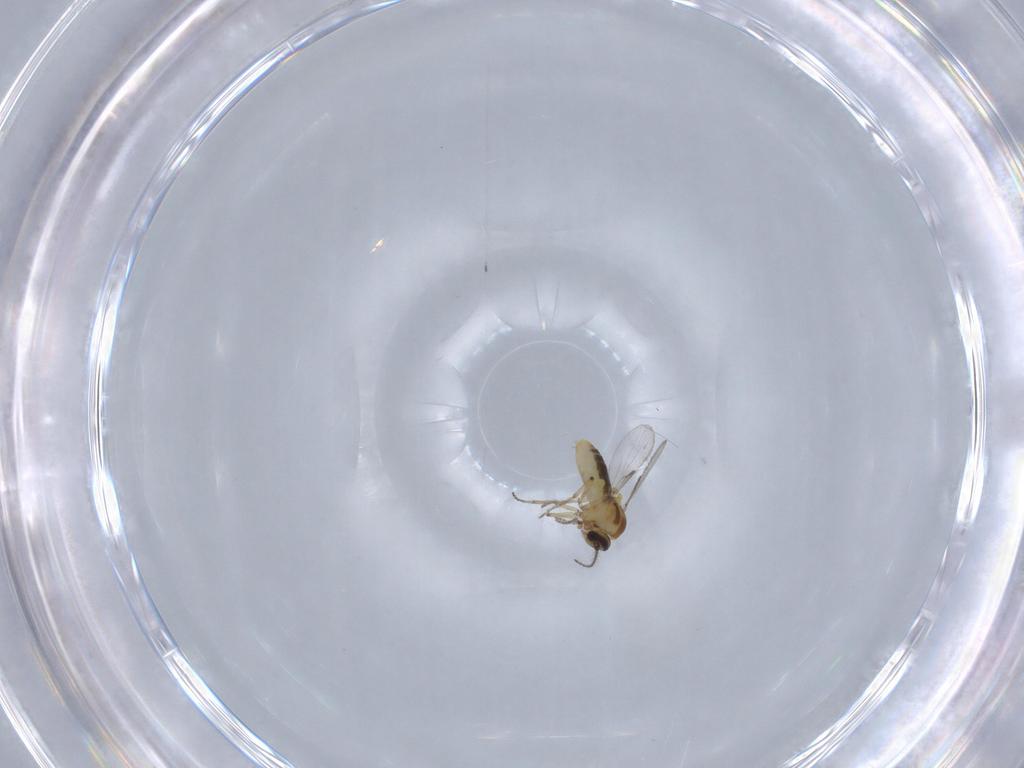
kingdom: Animalia
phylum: Arthropoda
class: Insecta
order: Diptera
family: Ceratopogonidae
